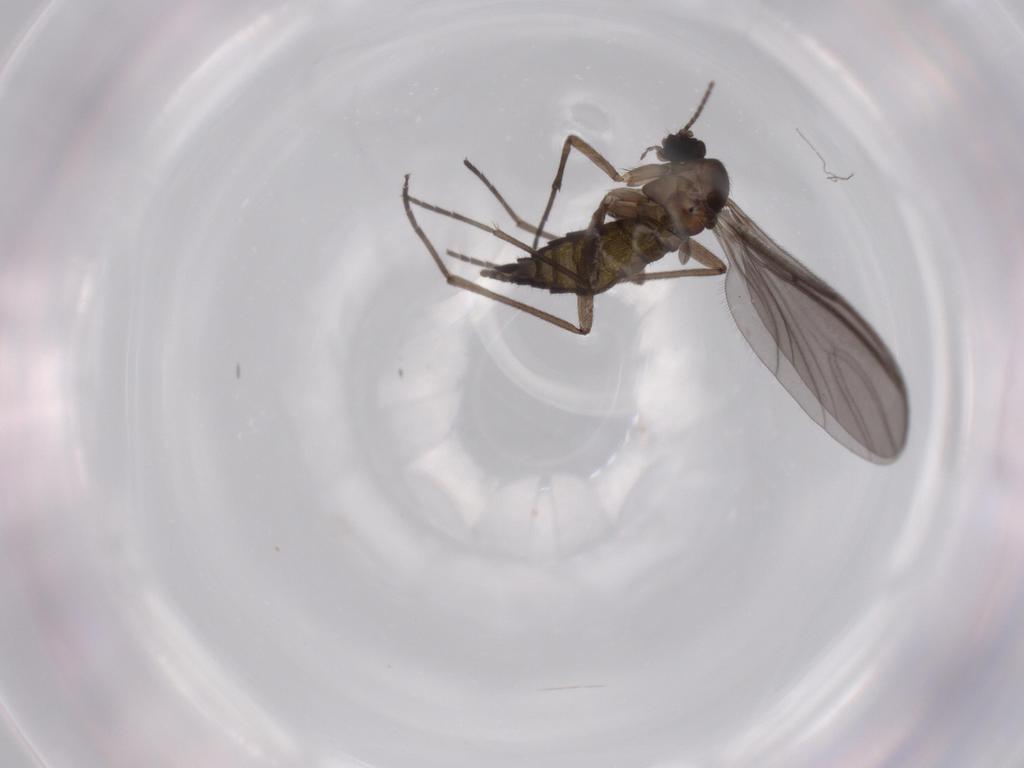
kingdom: Animalia
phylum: Arthropoda
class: Insecta
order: Diptera
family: Sciaridae
